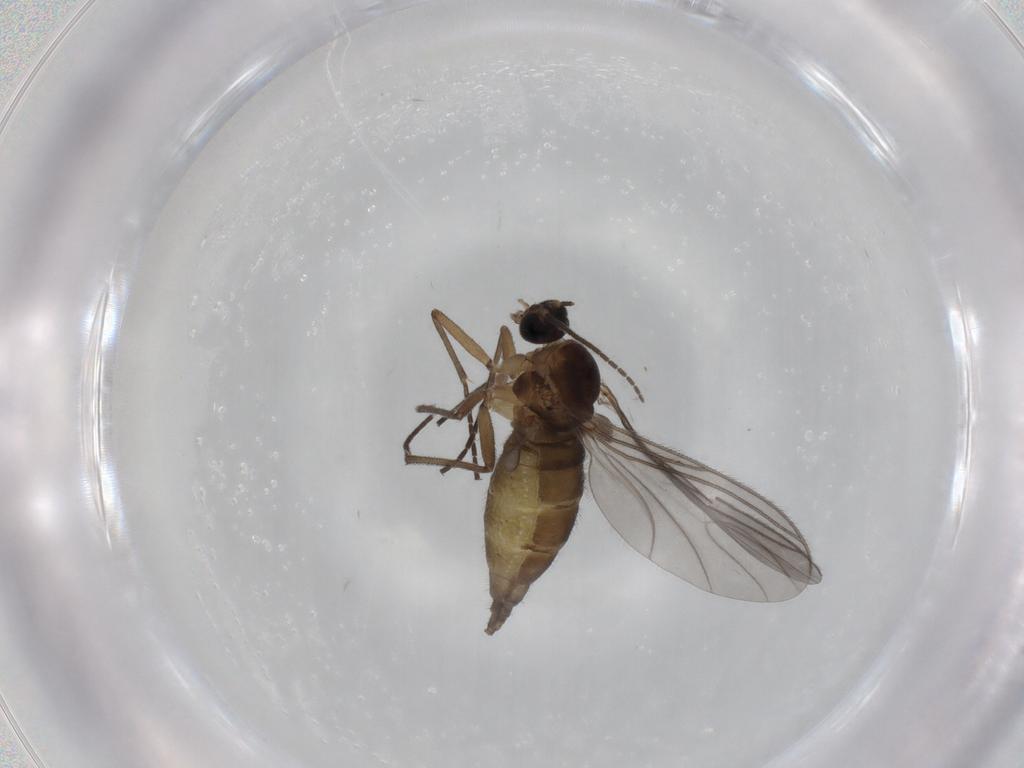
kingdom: Animalia
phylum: Arthropoda
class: Insecta
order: Diptera
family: Sciaridae
